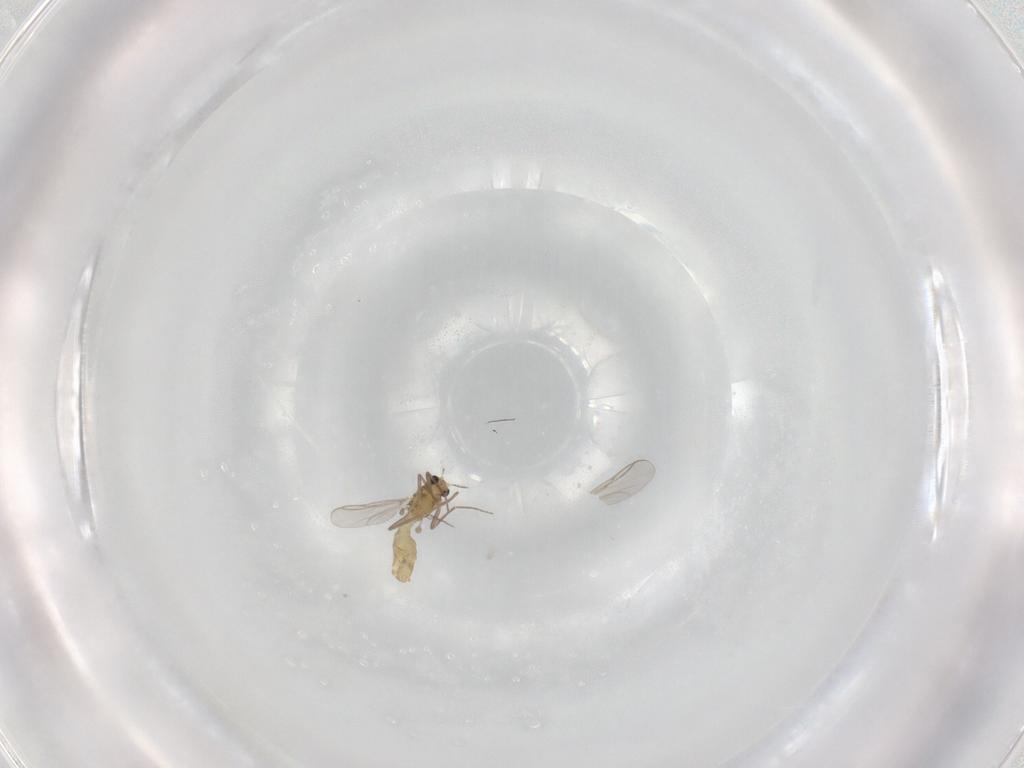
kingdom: Animalia
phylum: Arthropoda
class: Insecta
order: Diptera
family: Chironomidae
